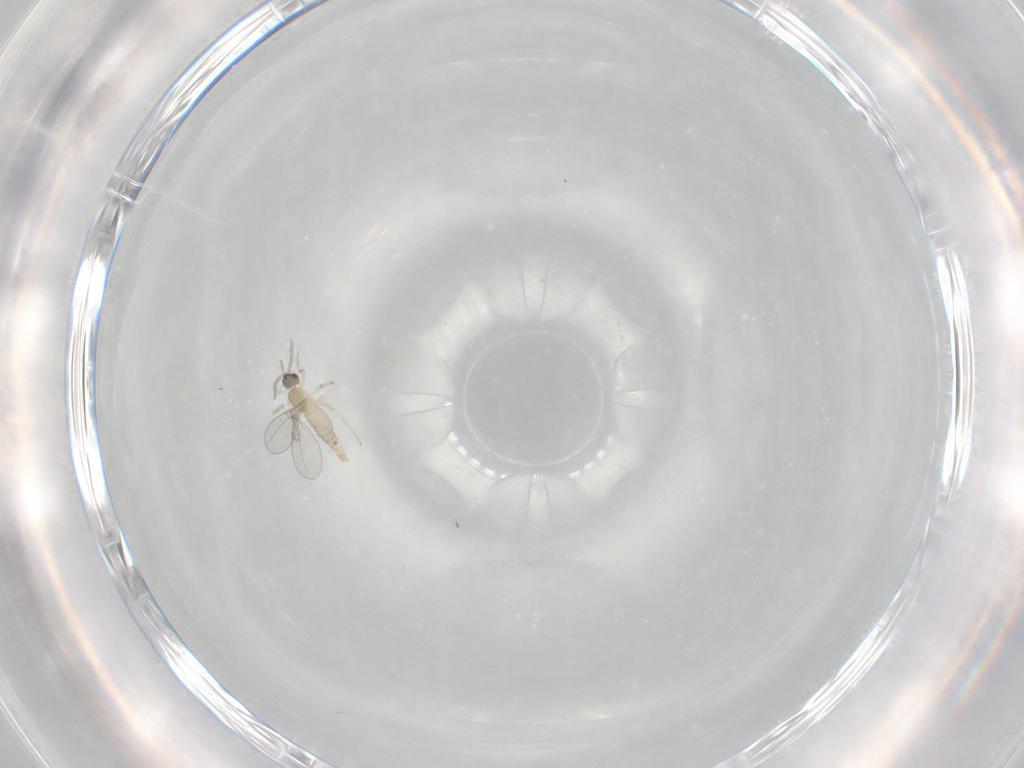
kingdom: Animalia
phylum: Arthropoda
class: Insecta
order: Diptera
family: Cecidomyiidae
